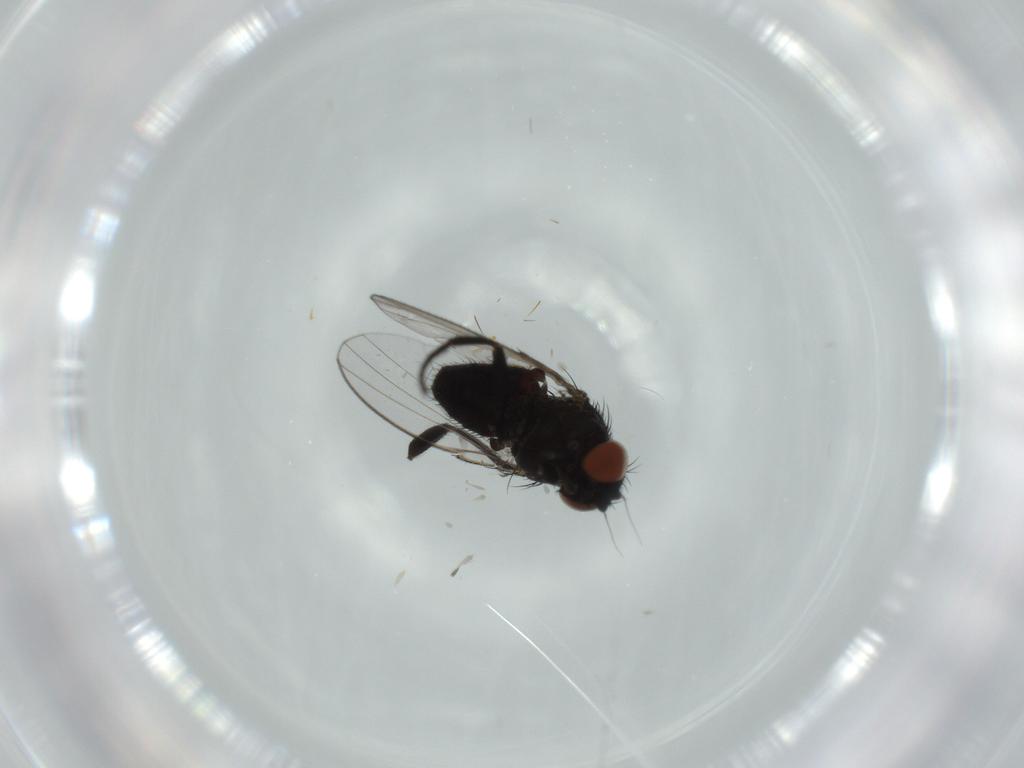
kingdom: Animalia
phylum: Arthropoda
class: Insecta
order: Diptera
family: Milichiidae
